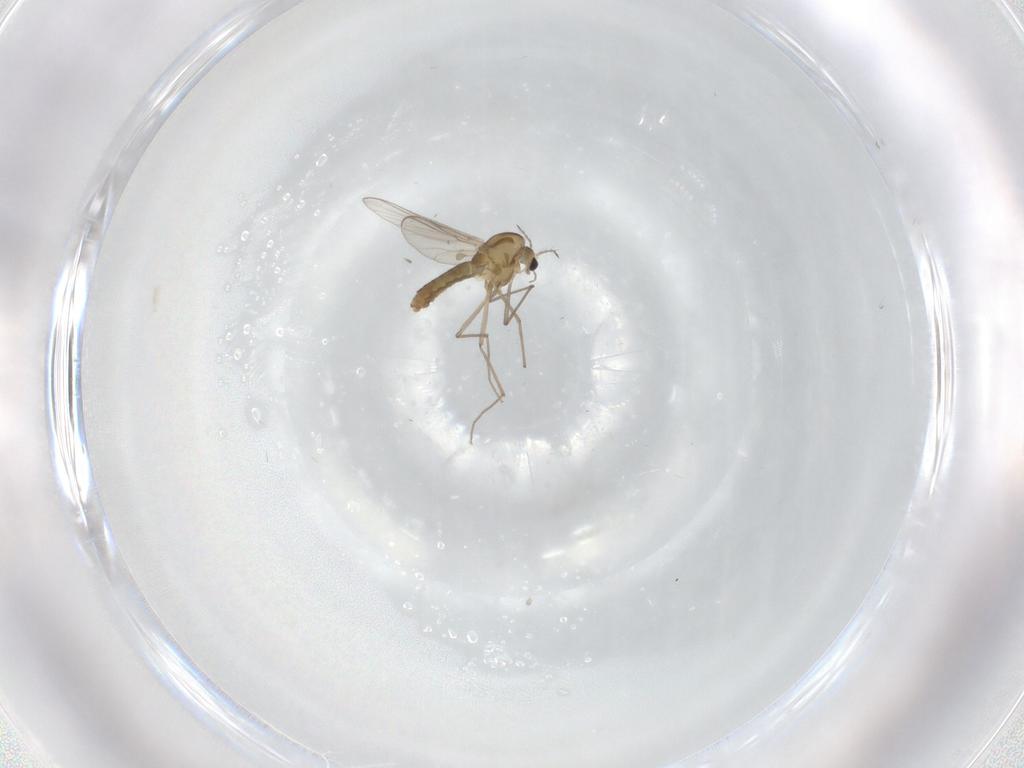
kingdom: Animalia
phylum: Arthropoda
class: Insecta
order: Diptera
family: Chironomidae
